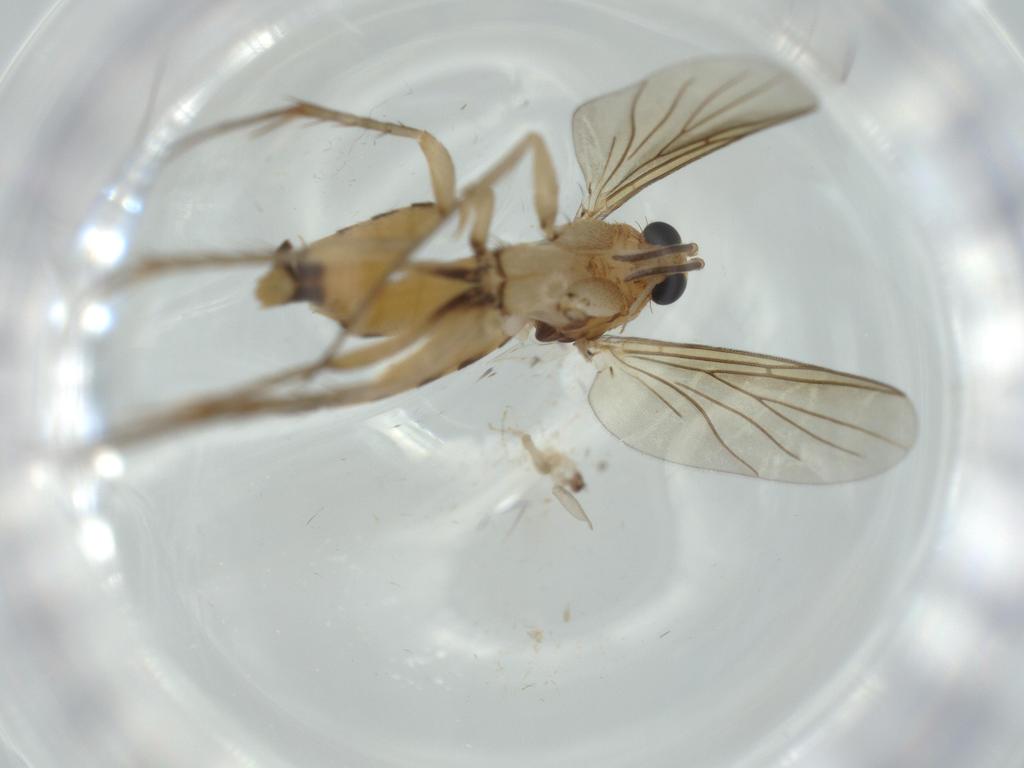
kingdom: Animalia
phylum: Arthropoda
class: Insecta
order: Diptera
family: Mycetophilidae
